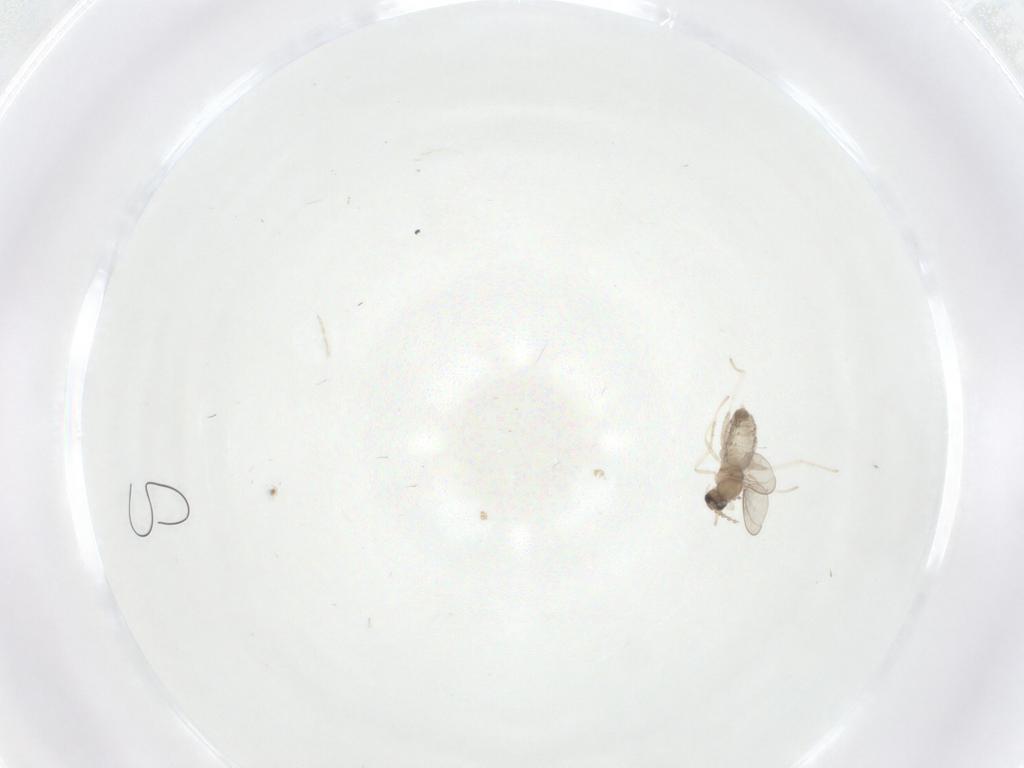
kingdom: Animalia
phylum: Arthropoda
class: Insecta
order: Diptera
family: Cecidomyiidae
